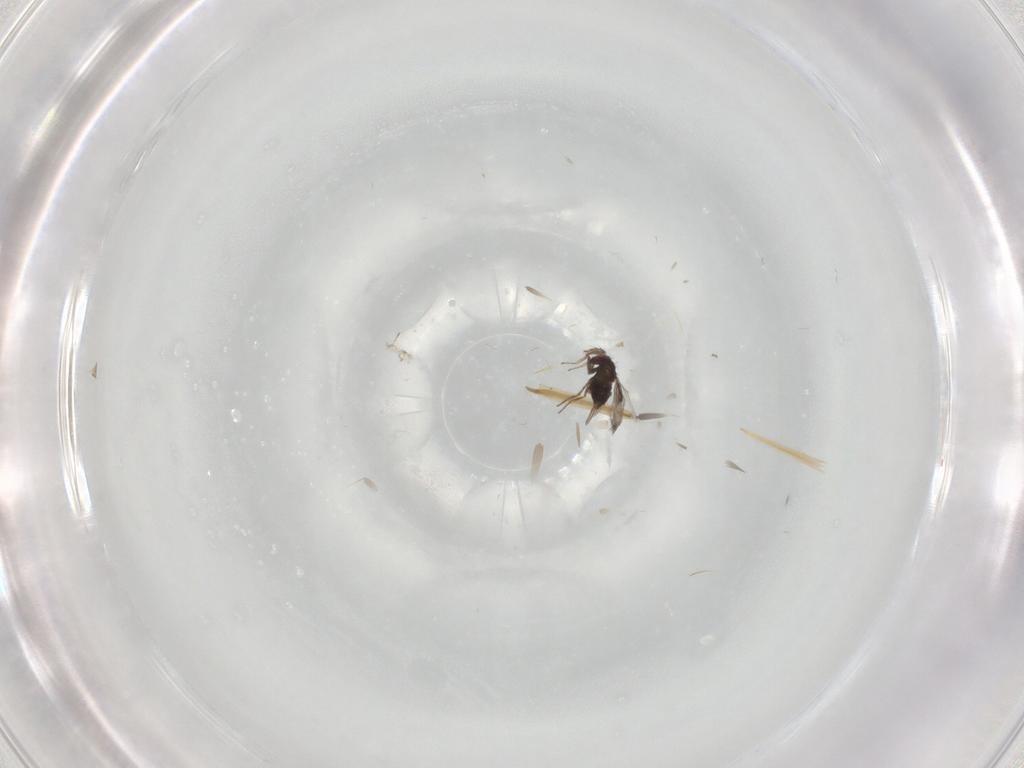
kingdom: Animalia
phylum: Arthropoda
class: Insecta
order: Hymenoptera
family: Trichogrammatidae
